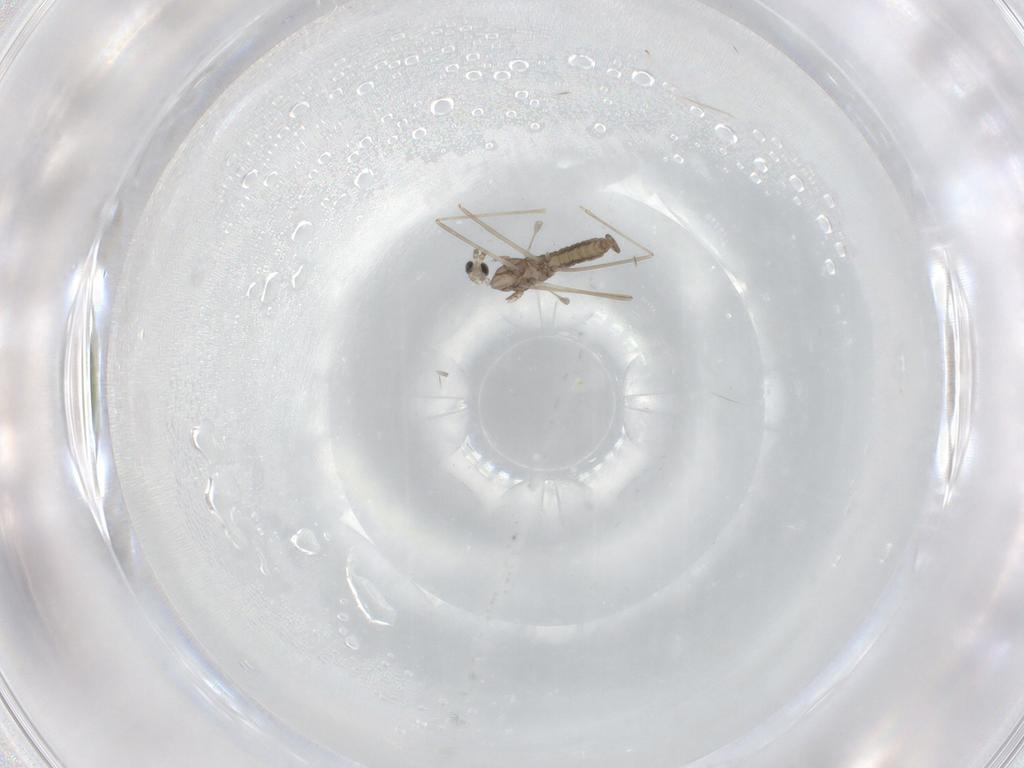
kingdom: Animalia
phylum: Arthropoda
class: Insecta
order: Diptera
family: Cecidomyiidae
